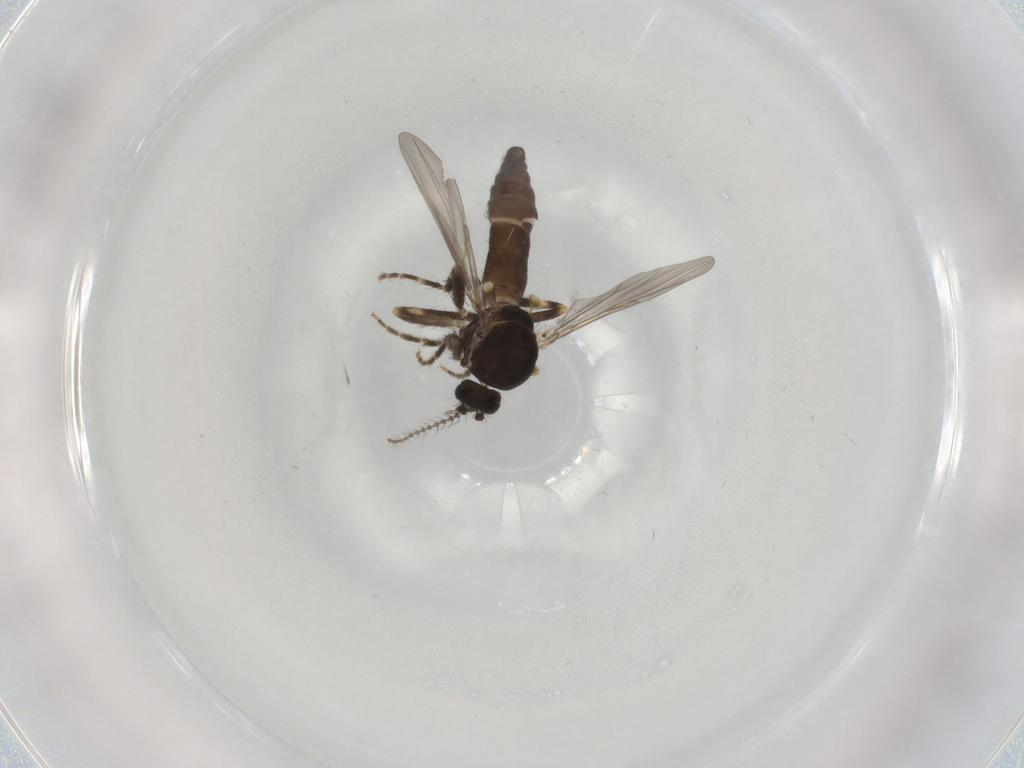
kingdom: Animalia
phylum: Arthropoda
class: Insecta
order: Diptera
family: Ceratopogonidae
